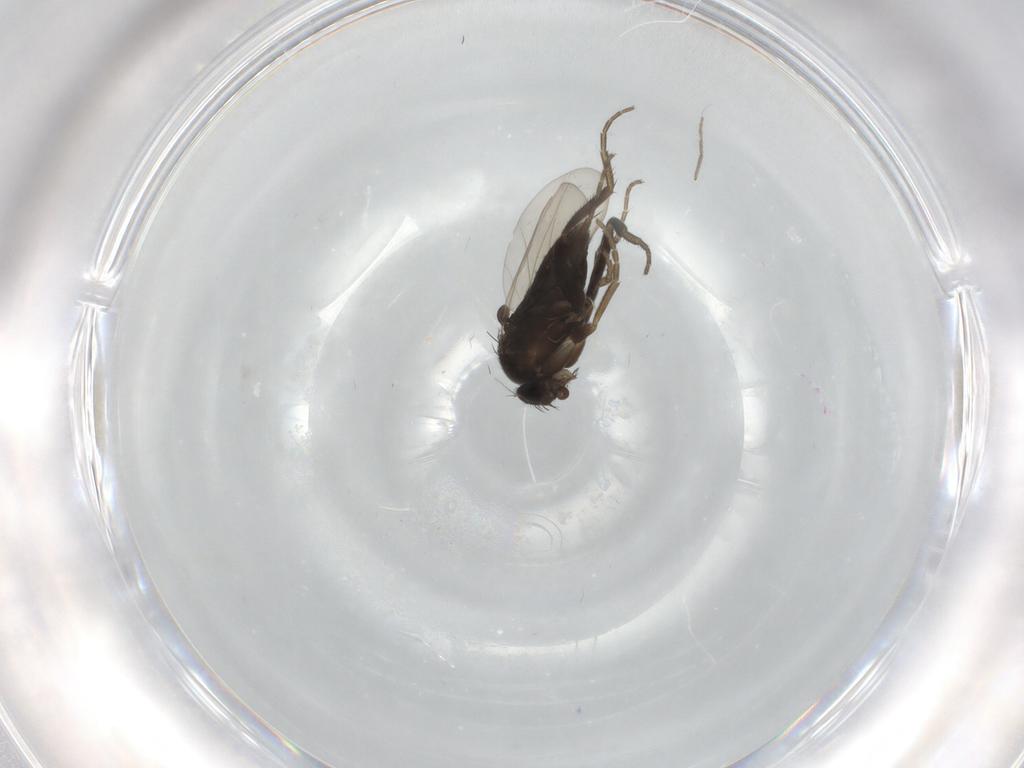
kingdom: Animalia
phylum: Arthropoda
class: Insecta
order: Diptera
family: Phoridae
